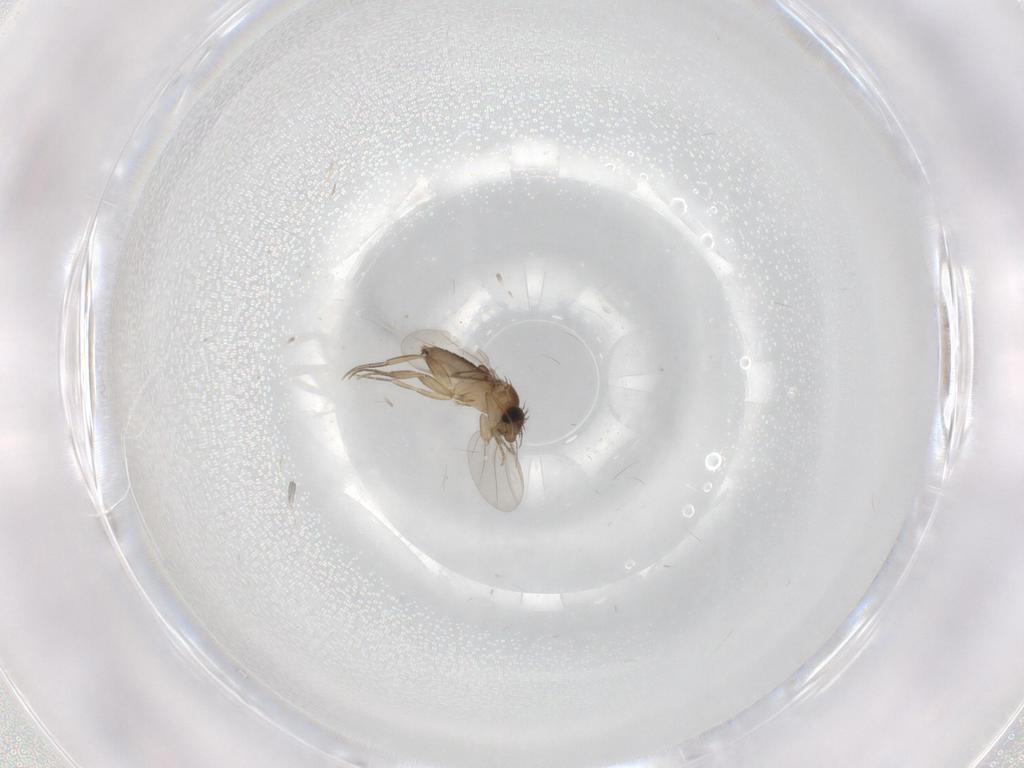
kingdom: Animalia
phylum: Arthropoda
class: Insecta
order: Diptera
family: Phoridae
